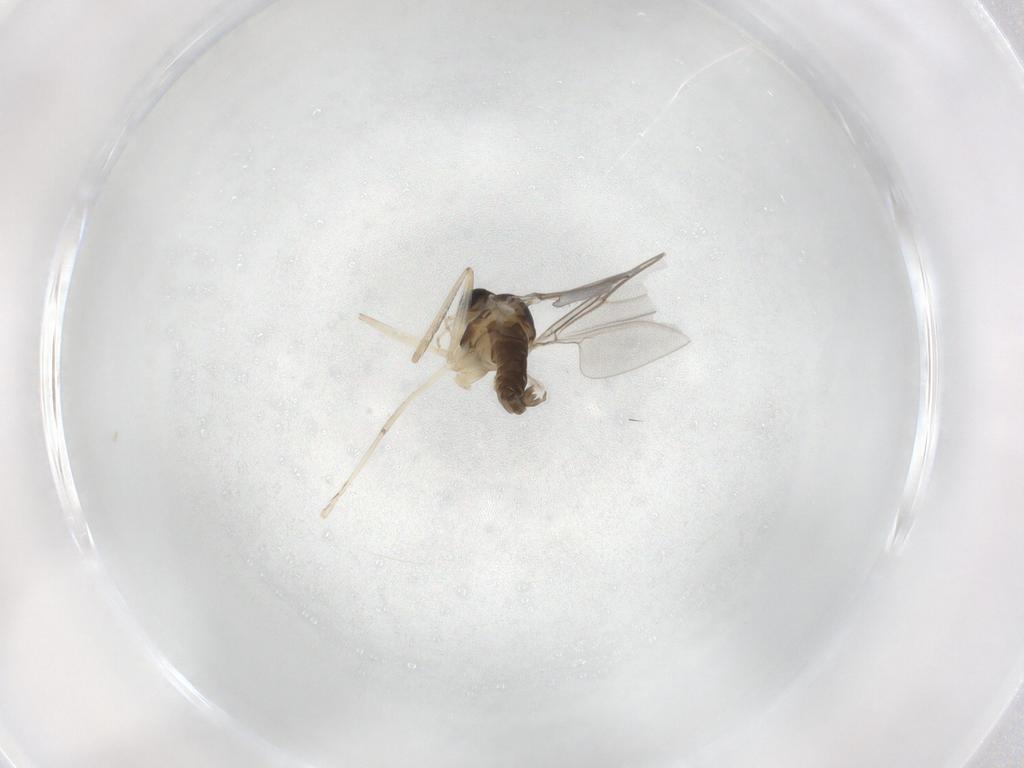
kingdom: Animalia
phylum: Arthropoda
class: Insecta
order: Diptera
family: Cecidomyiidae
